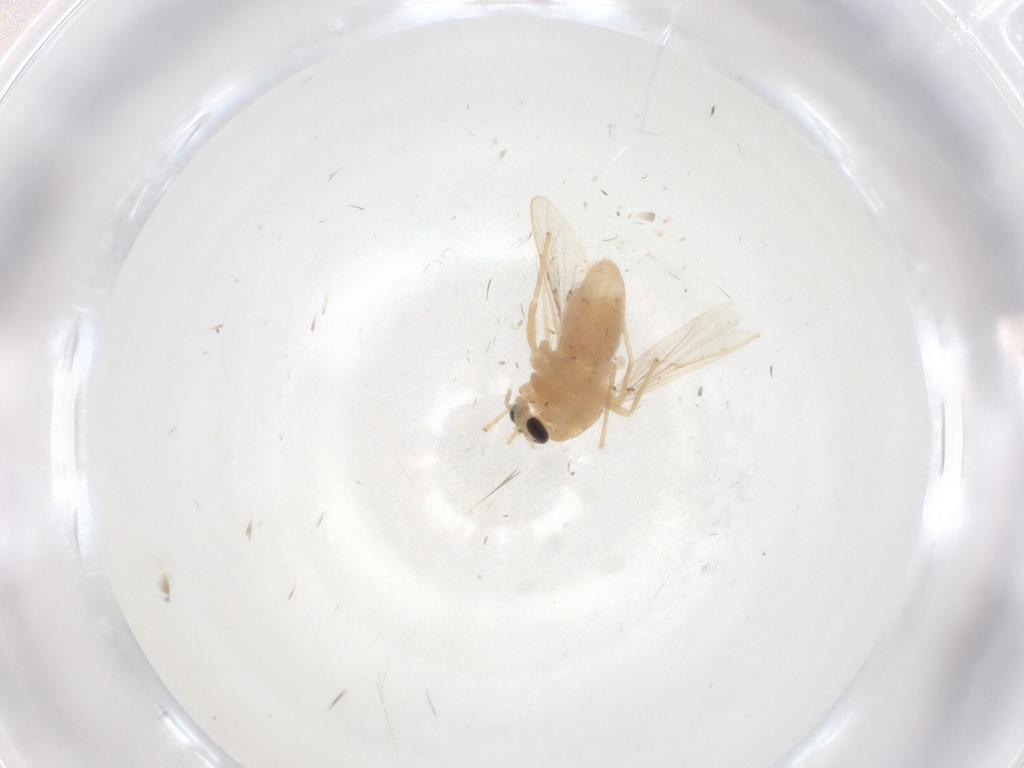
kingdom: Animalia
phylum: Arthropoda
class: Insecta
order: Diptera
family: Chironomidae
